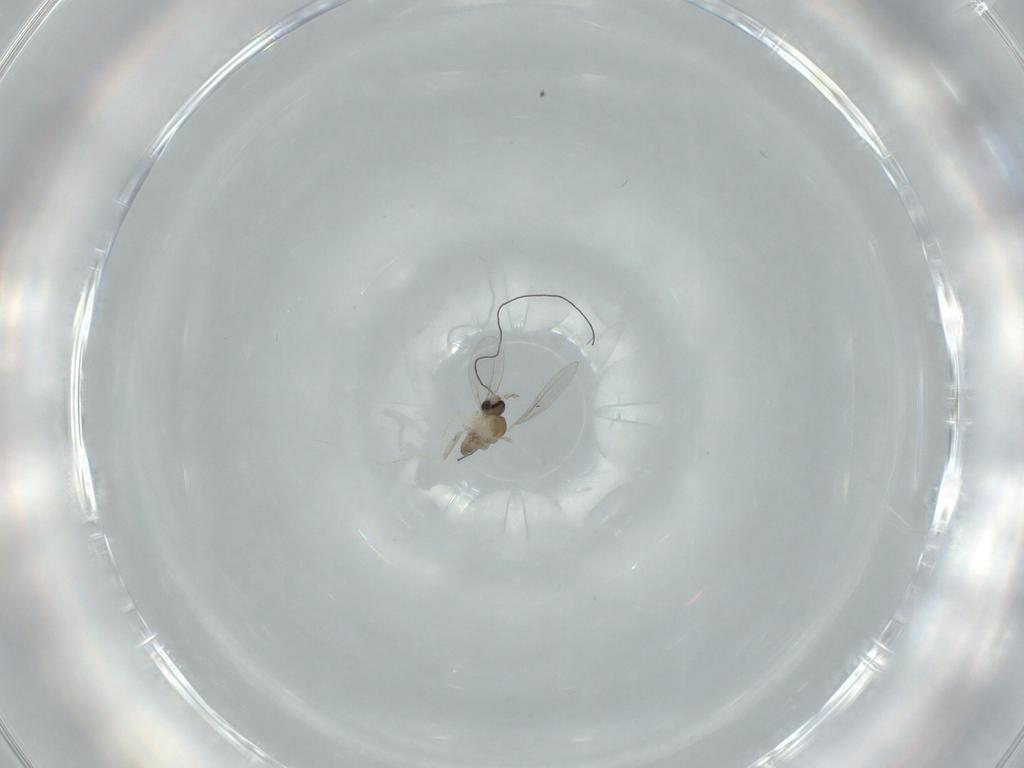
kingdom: Animalia
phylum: Arthropoda
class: Insecta
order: Diptera
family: Cecidomyiidae
